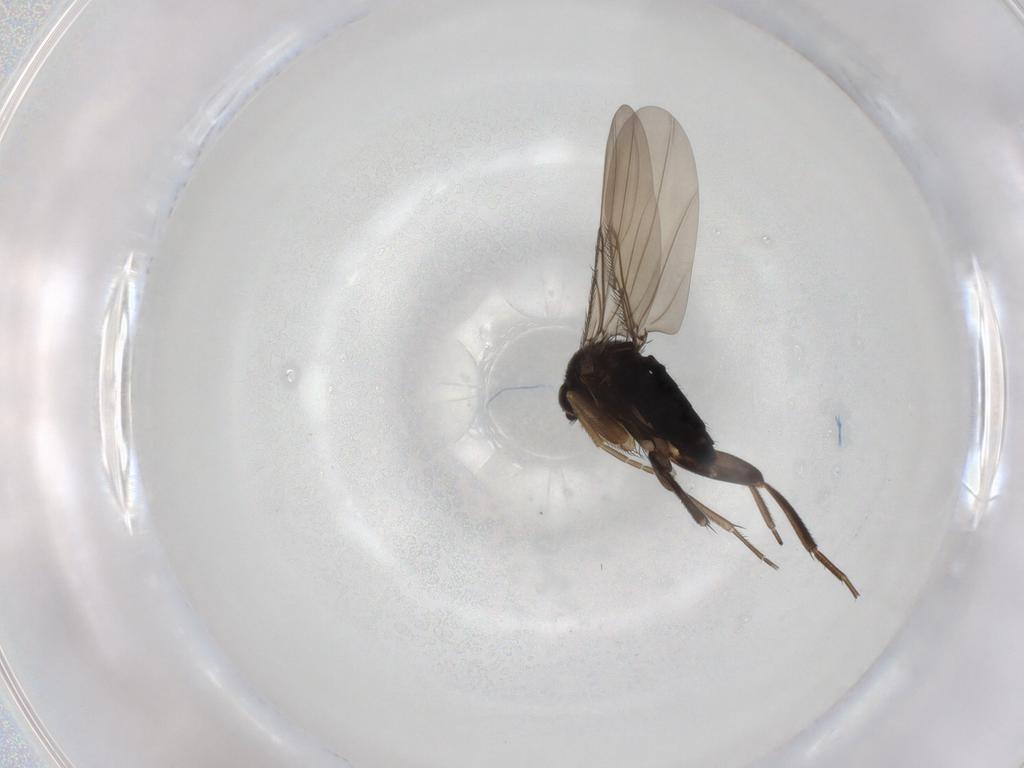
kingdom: Animalia
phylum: Arthropoda
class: Insecta
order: Diptera
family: Phoridae
